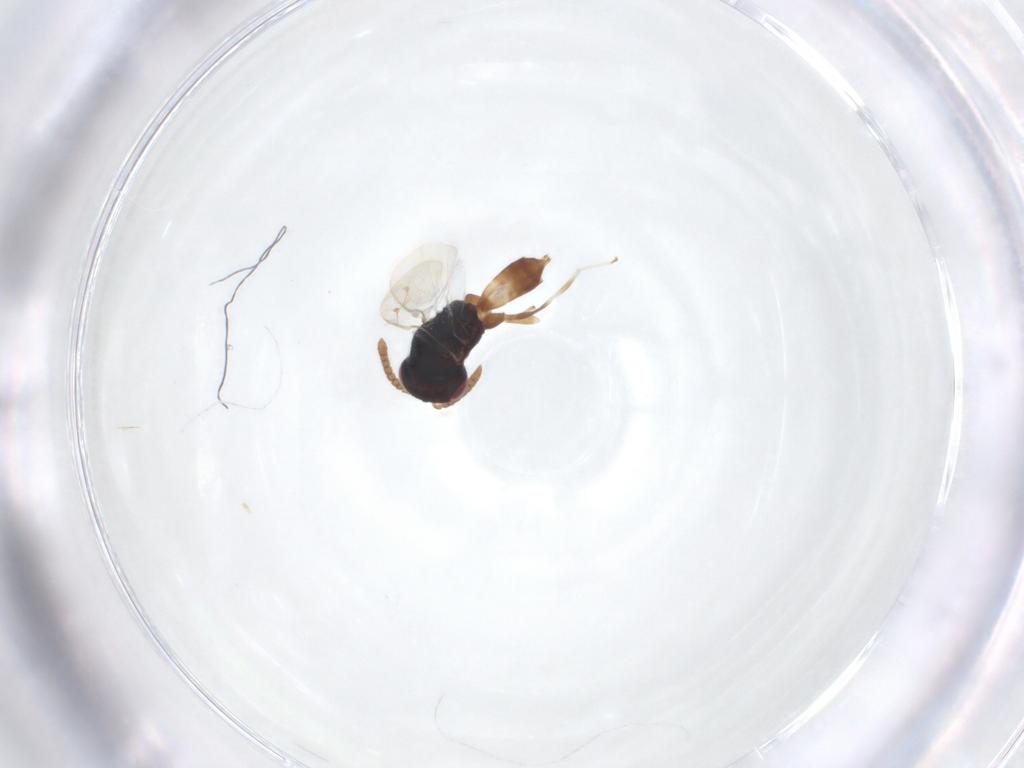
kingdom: Animalia
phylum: Arthropoda
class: Insecta
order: Hymenoptera
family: Pteromalidae
